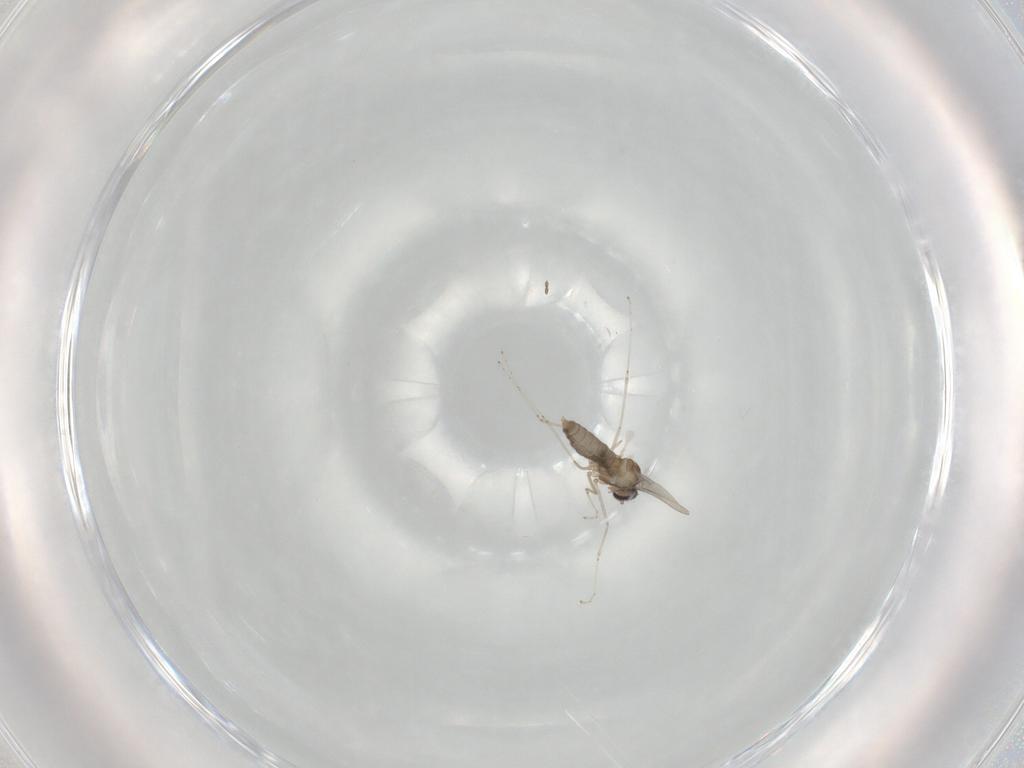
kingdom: Animalia
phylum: Arthropoda
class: Insecta
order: Diptera
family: Cecidomyiidae
